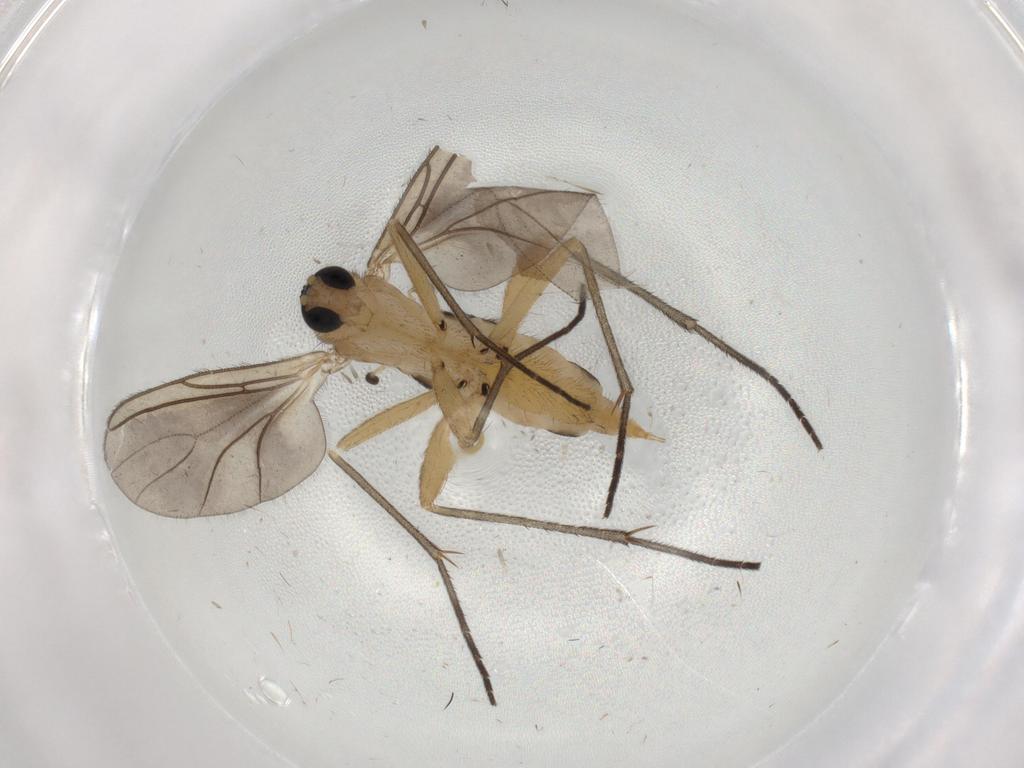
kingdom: Animalia
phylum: Arthropoda
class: Insecta
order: Diptera
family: Sciaridae
